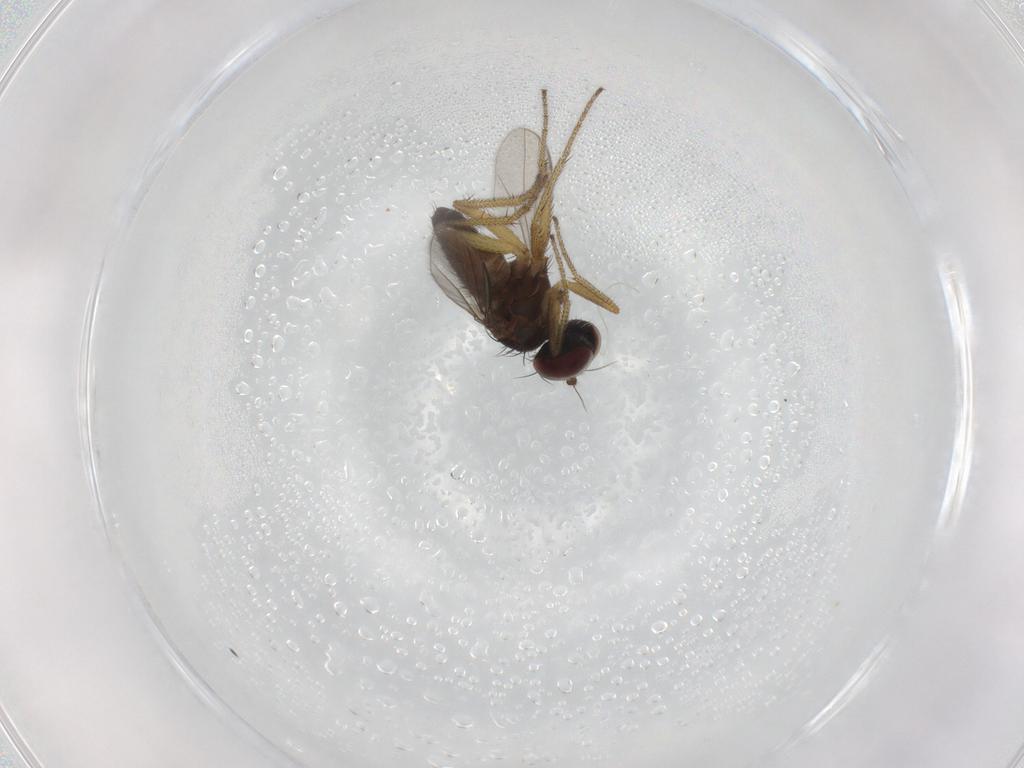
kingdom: Animalia
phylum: Arthropoda
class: Insecta
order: Diptera
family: Dolichopodidae
